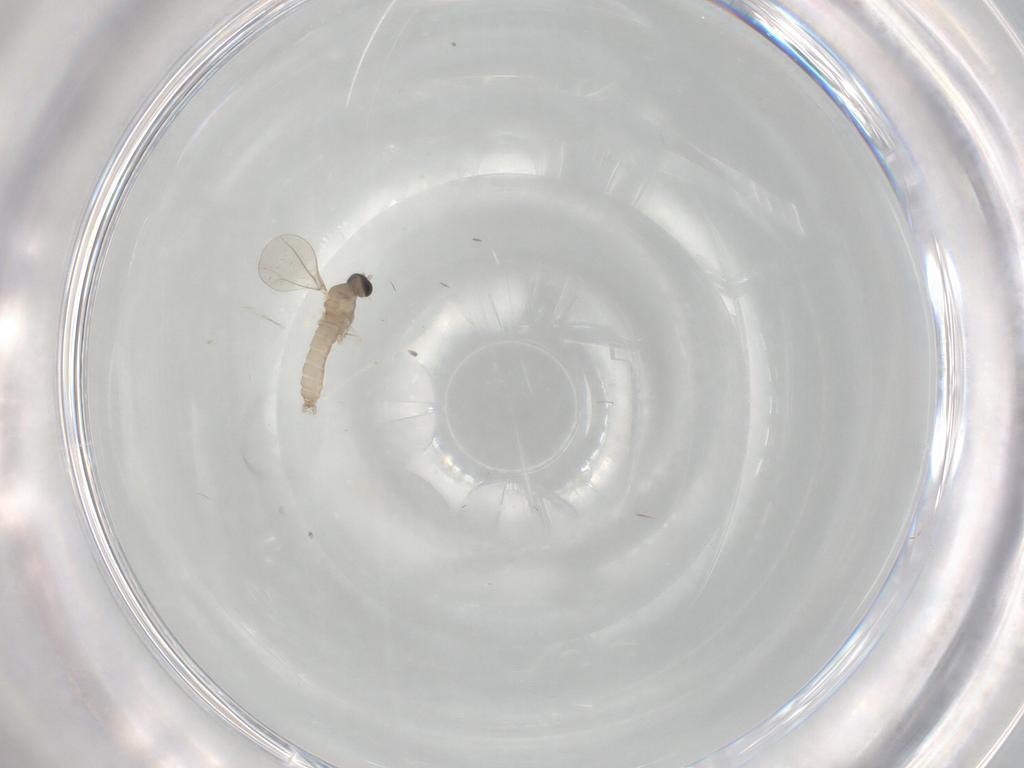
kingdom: Animalia
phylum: Arthropoda
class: Insecta
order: Diptera
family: Cecidomyiidae
